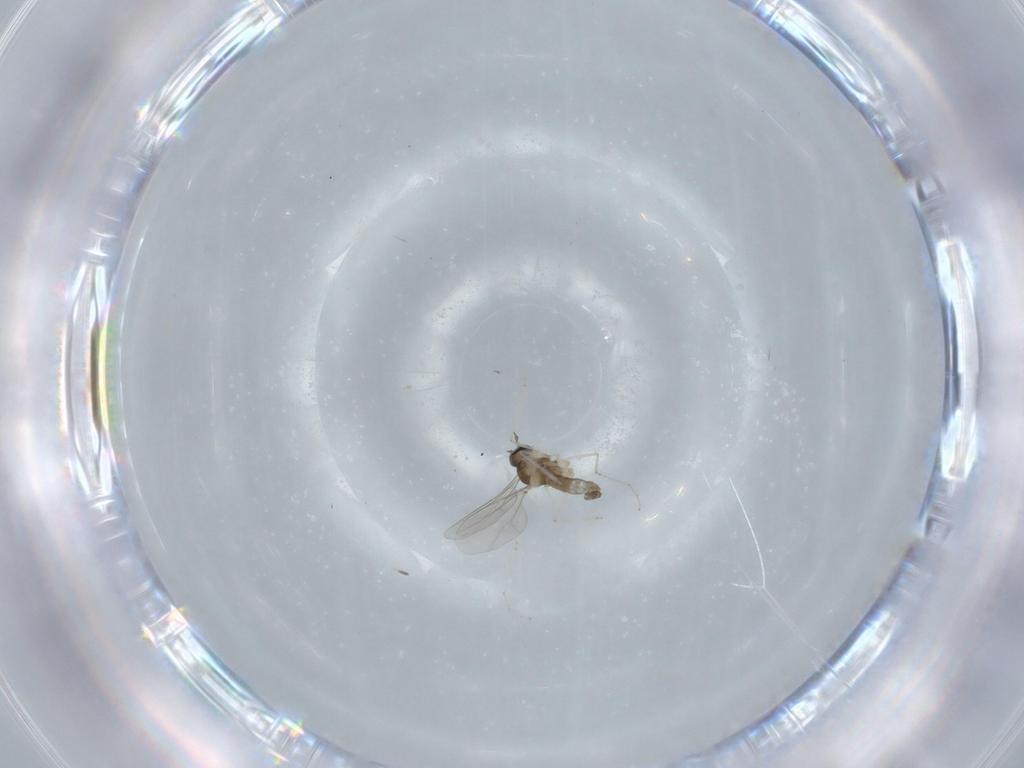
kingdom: Animalia
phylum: Arthropoda
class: Insecta
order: Diptera
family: Cecidomyiidae
